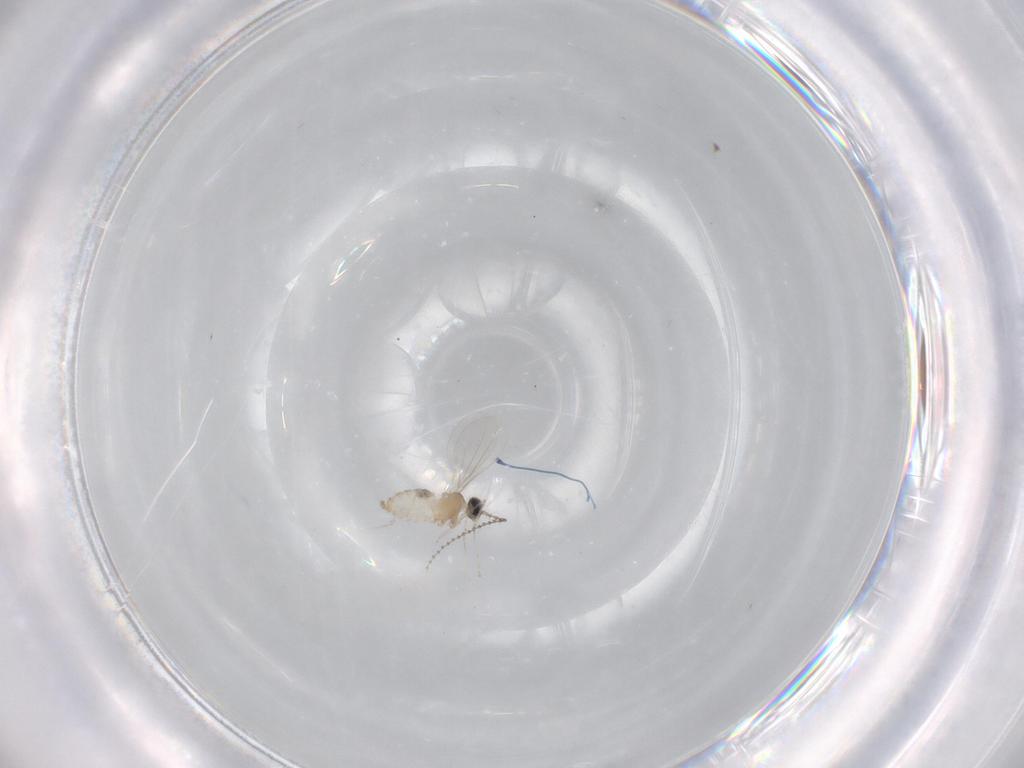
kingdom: Animalia
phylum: Arthropoda
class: Insecta
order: Diptera
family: Cecidomyiidae
